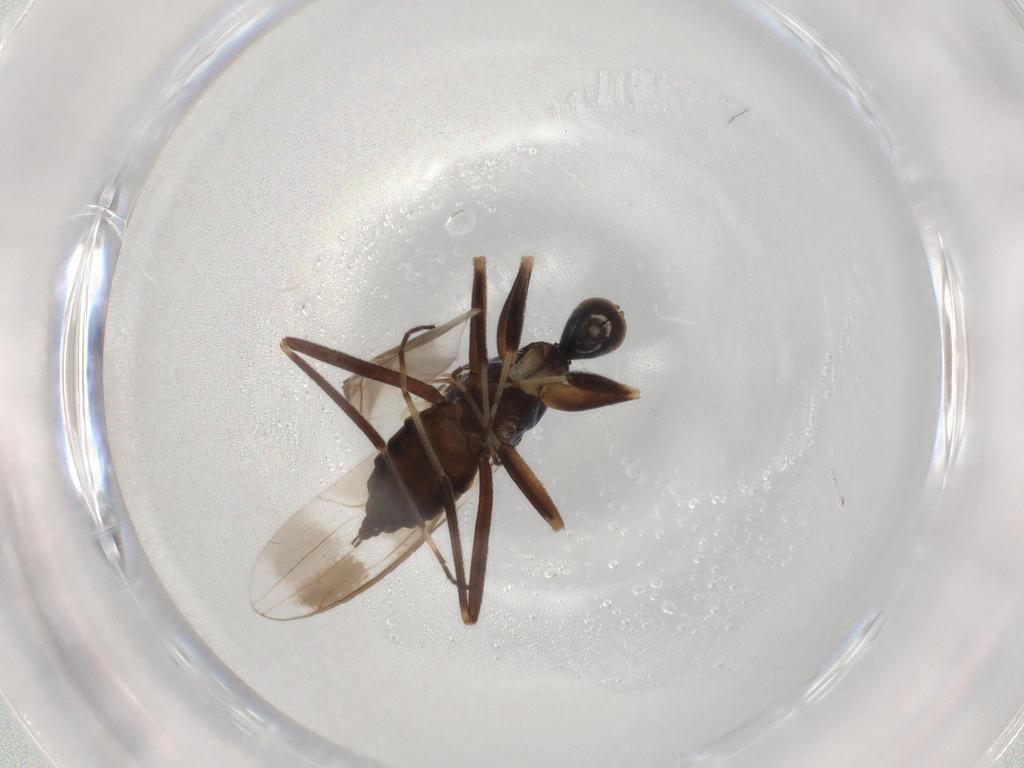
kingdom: Animalia
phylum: Arthropoda
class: Insecta
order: Diptera
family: Hybotidae
